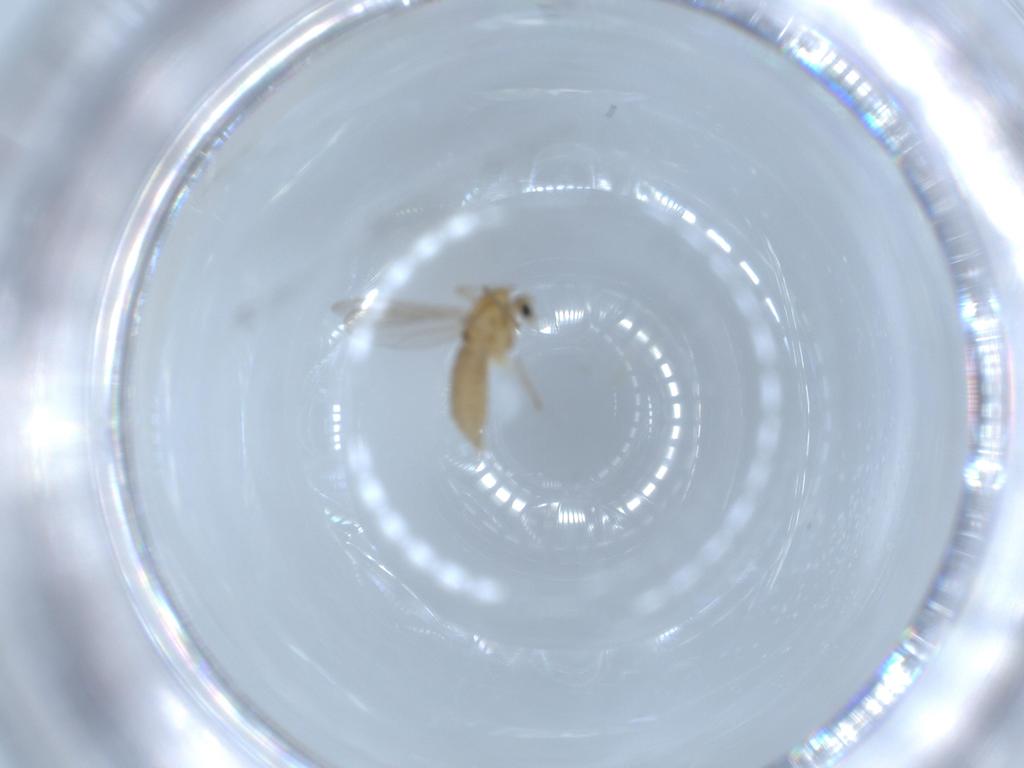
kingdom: Animalia
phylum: Arthropoda
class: Insecta
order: Diptera
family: Chironomidae
